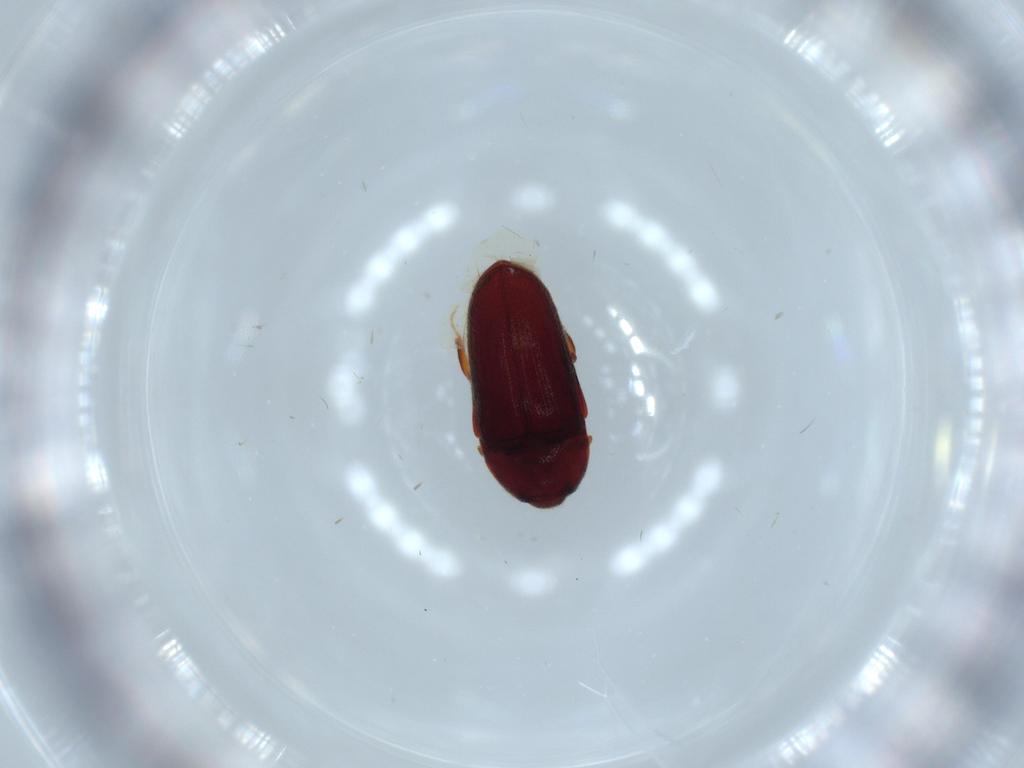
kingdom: Animalia
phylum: Arthropoda
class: Insecta
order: Coleoptera
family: Throscidae
